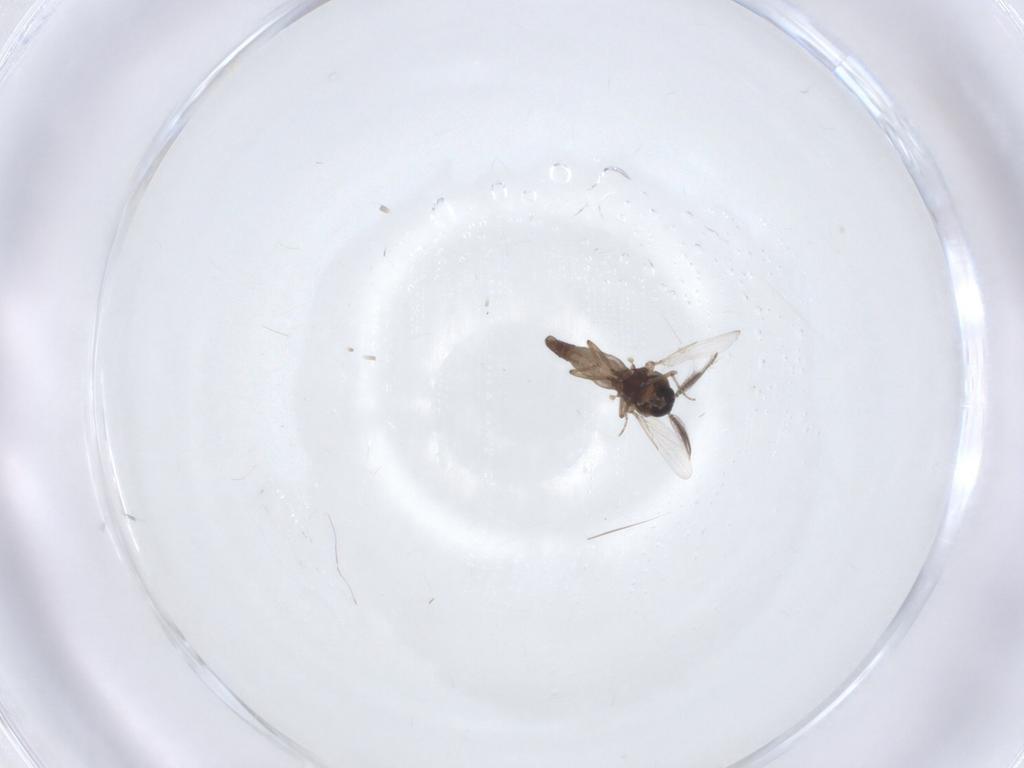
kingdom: Animalia
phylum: Arthropoda
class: Insecta
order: Diptera
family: Ceratopogonidae
